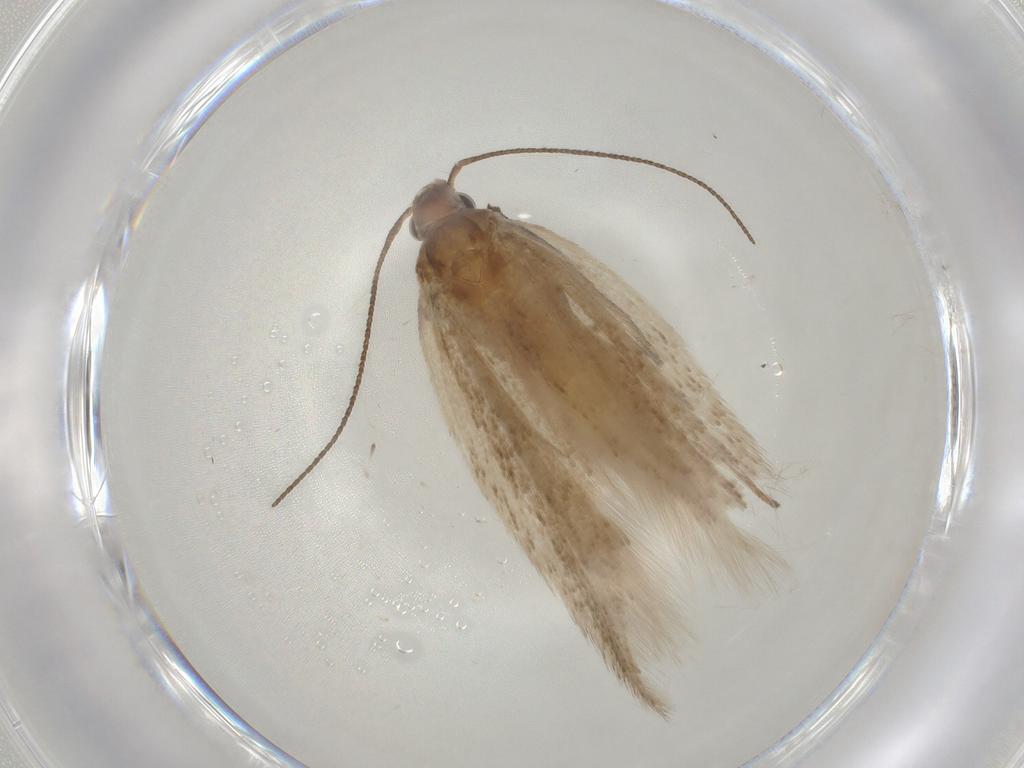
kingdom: Animalia
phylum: Arthropoda
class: Insecta
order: Lepidoptera
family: Gelechiidae
